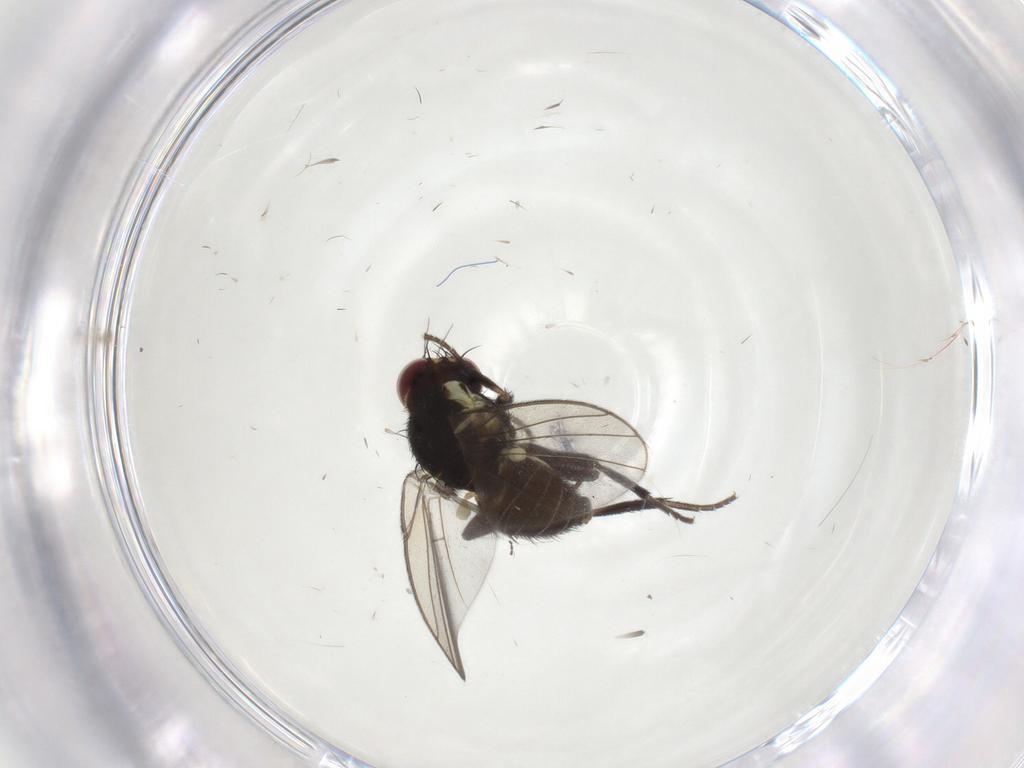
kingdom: Animalia
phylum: Arthropoda
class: Insecta
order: Diptera
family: Agromyzidae
